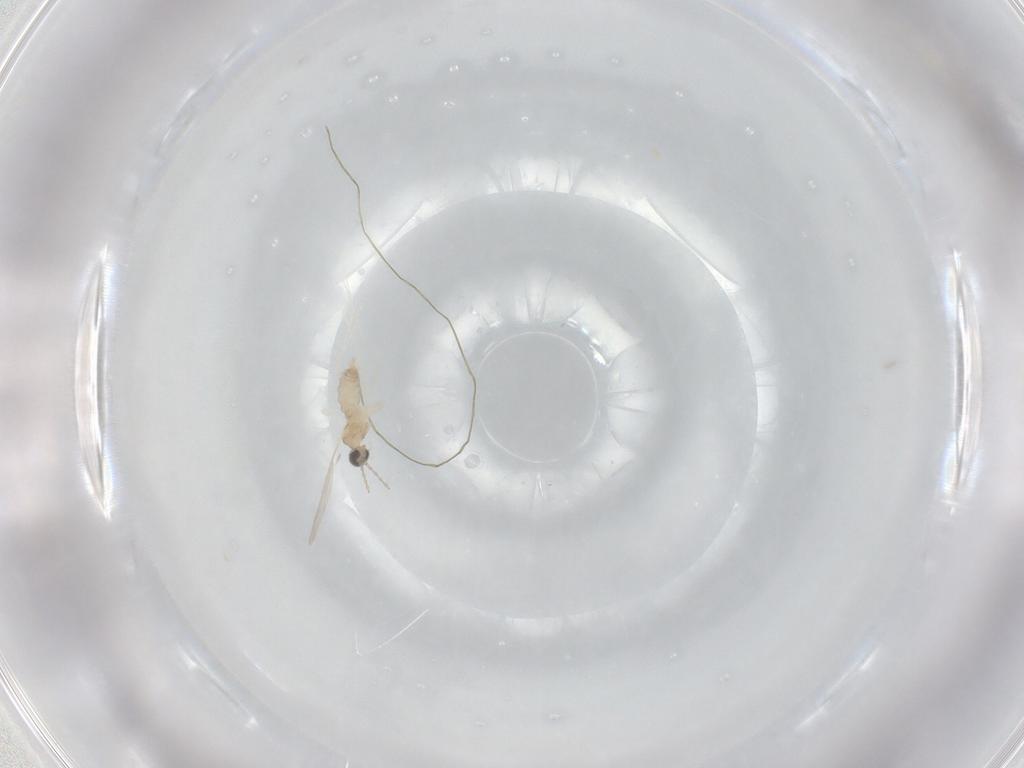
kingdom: Animalia
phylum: Arthropoda
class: Insecta
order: Diptera
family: Cecidomyiidae
